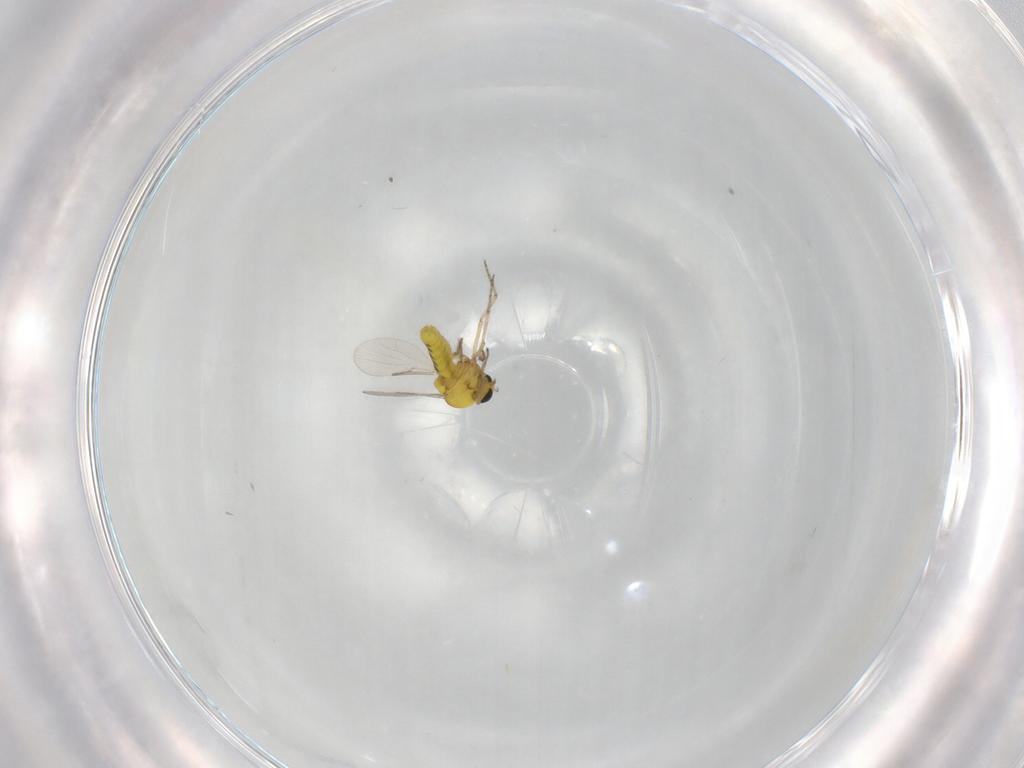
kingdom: Animalia
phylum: Arthropoda
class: Insecta
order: Diptera
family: Ceratopogonidae
